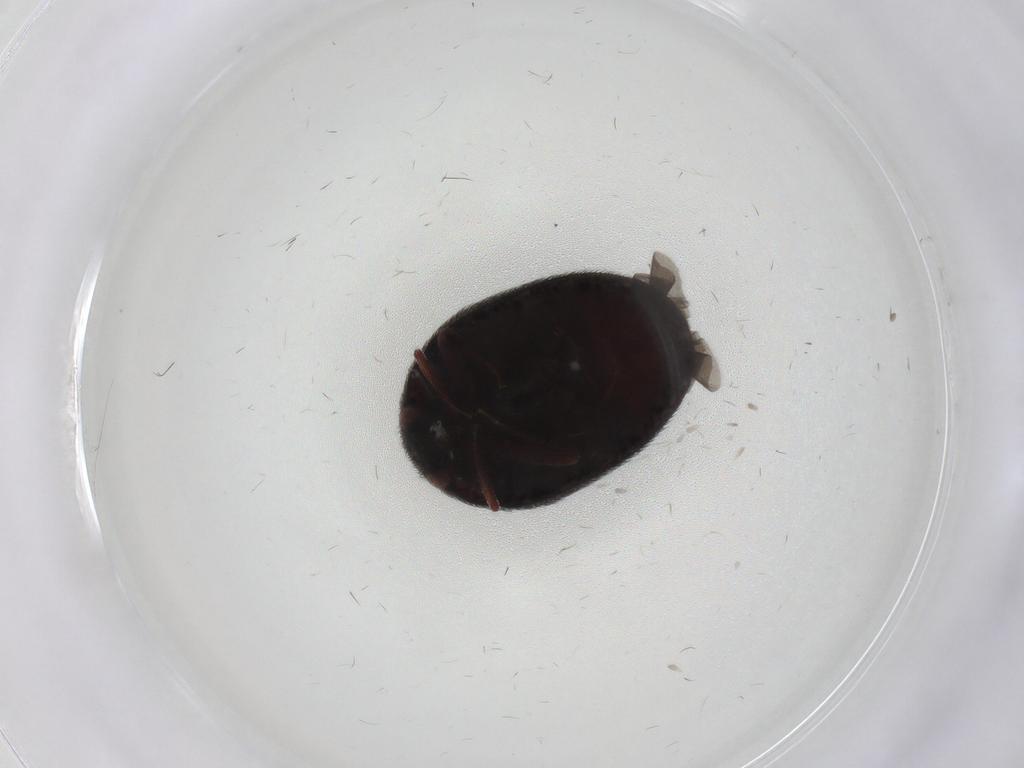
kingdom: Animalia
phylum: Arthropoda
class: Insecta
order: Coleoptera
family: Dermestidae
